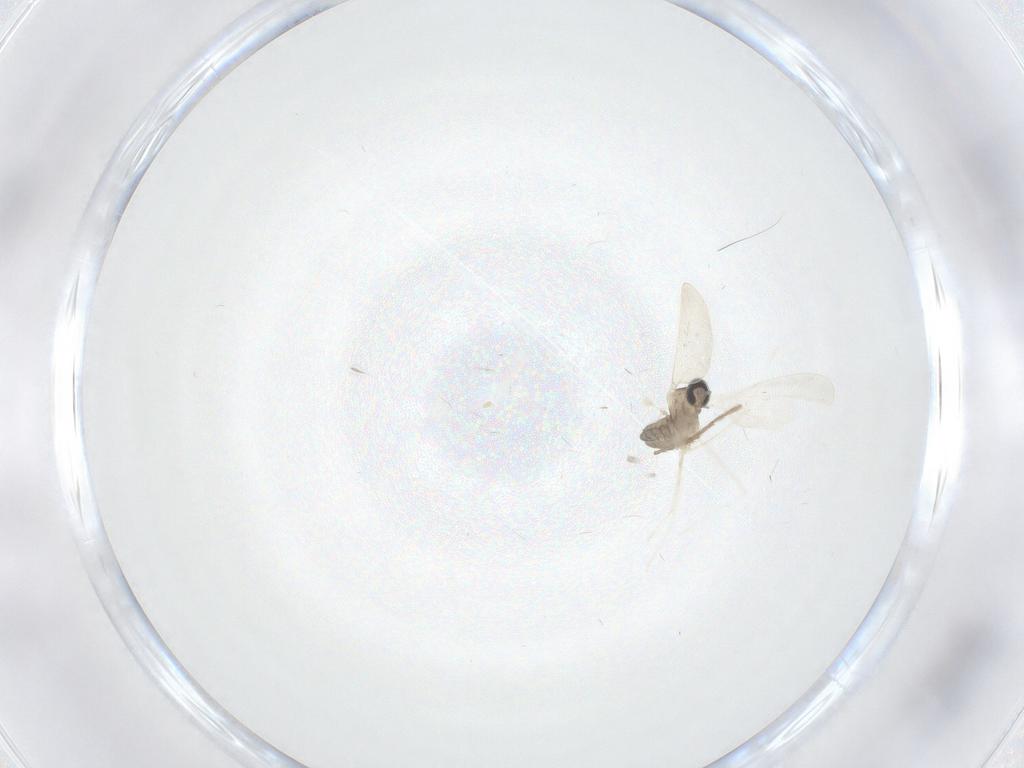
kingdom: Animalia
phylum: Arthropoda
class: Insecta
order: Diptera
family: Cecidomyiidae
